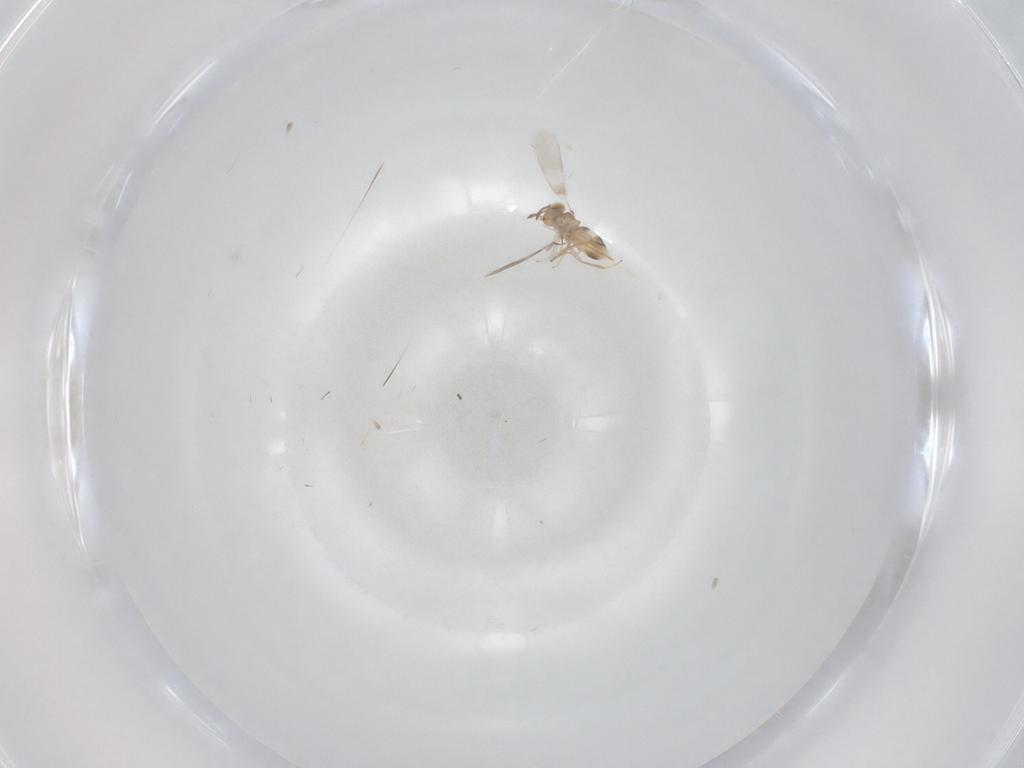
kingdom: Animalia
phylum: Arthropoda
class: Insecta
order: Hymenoptera
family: Aphelinidae
